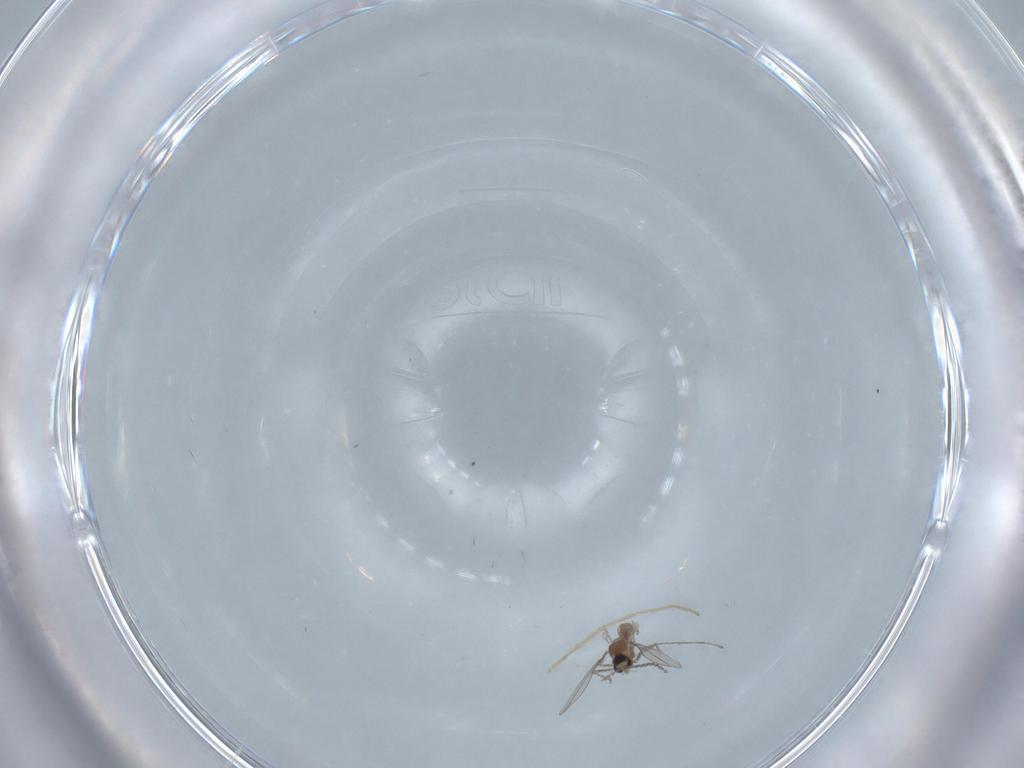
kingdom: Animalia
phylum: Arthropoda
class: Insecta
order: Diptera
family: Cecidomyiidae
